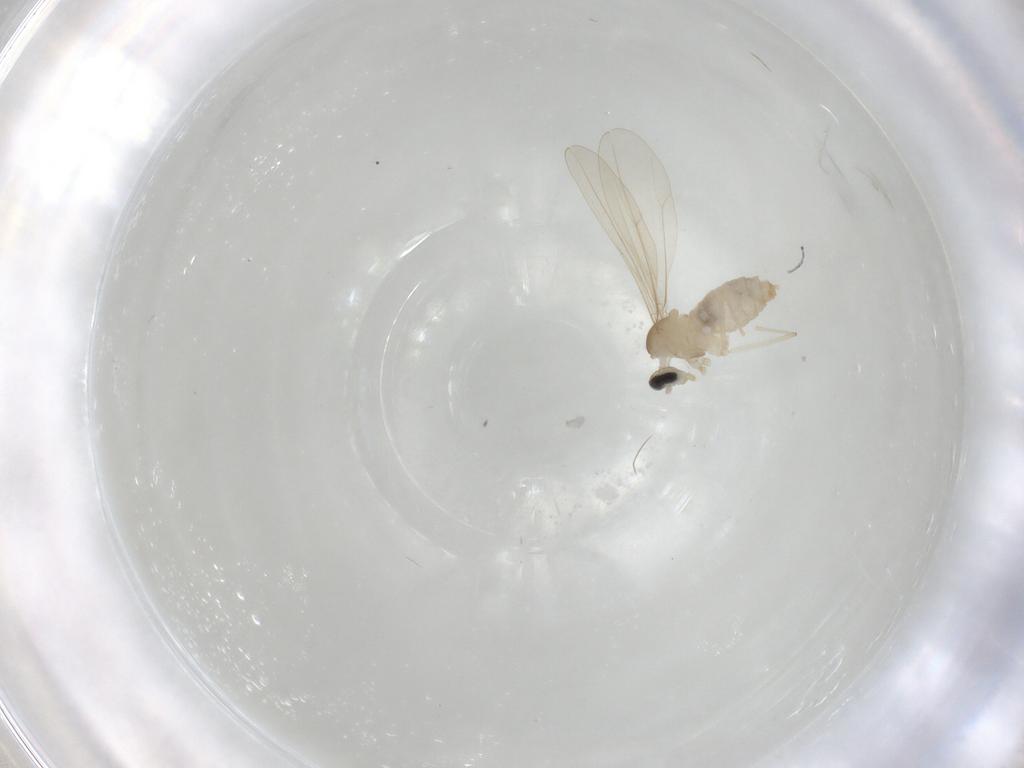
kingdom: Animalia
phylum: Arthropoda
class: Insecta
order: Diptera
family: Cecidomyiidae
